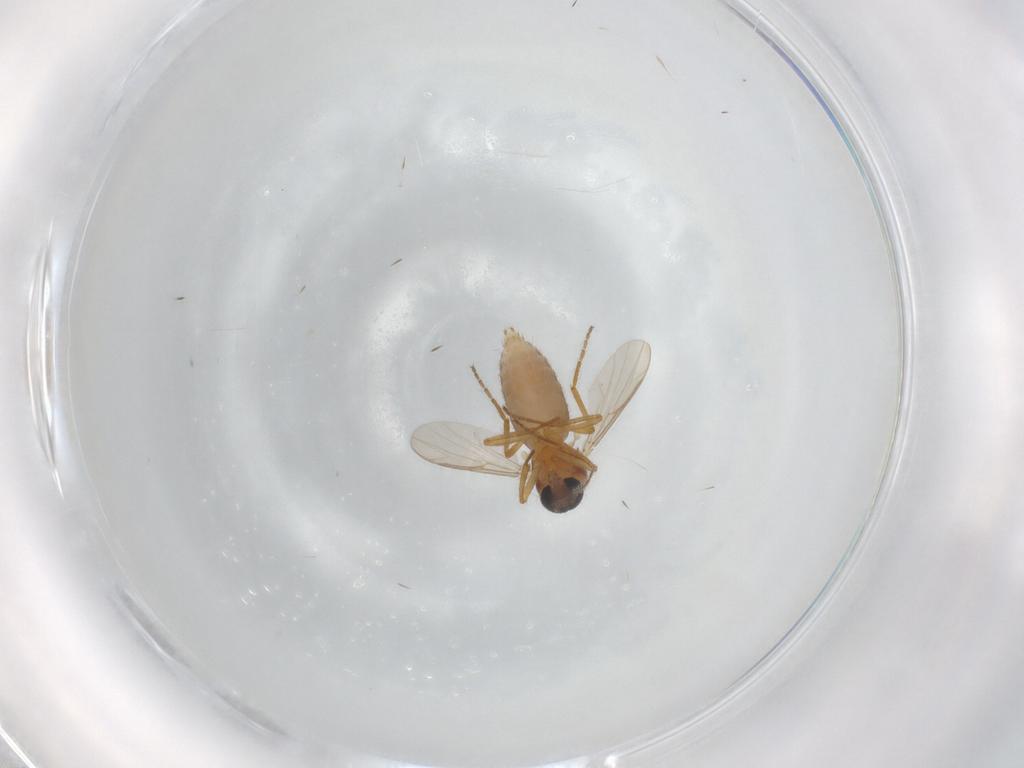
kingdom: Animalia
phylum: Arthropoda
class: Insecta
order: Diptera
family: Ceratopogonidae
